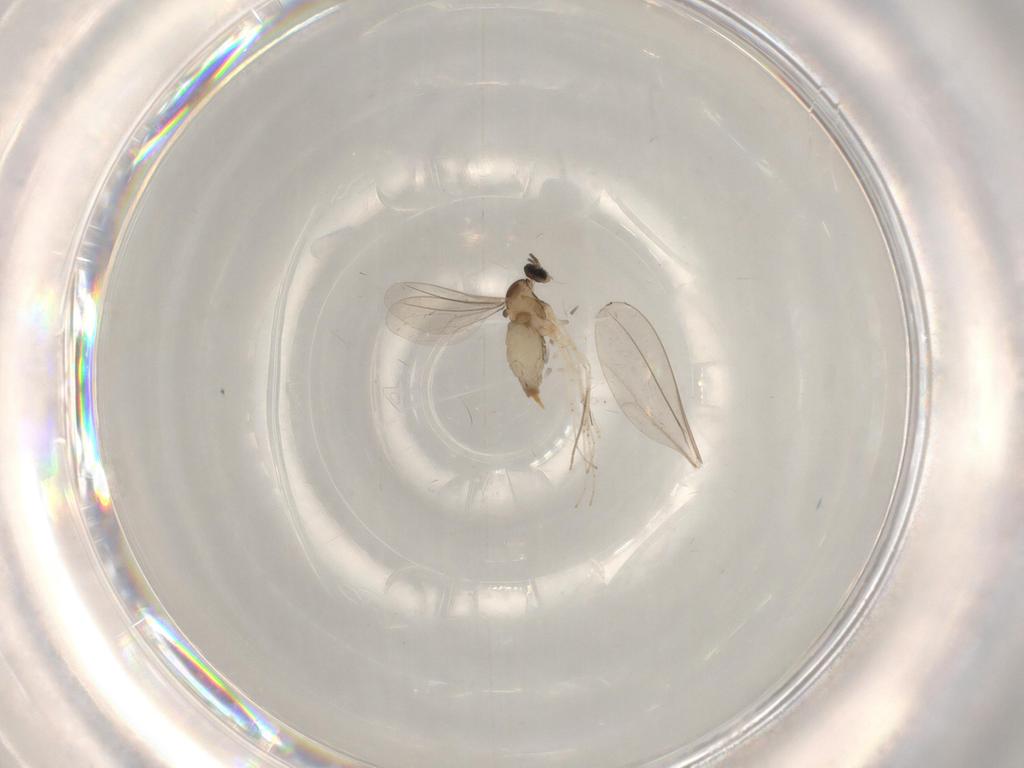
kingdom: Animalia
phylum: Arthropoda
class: Insecta
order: Diptera
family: Cecidomyiidae
